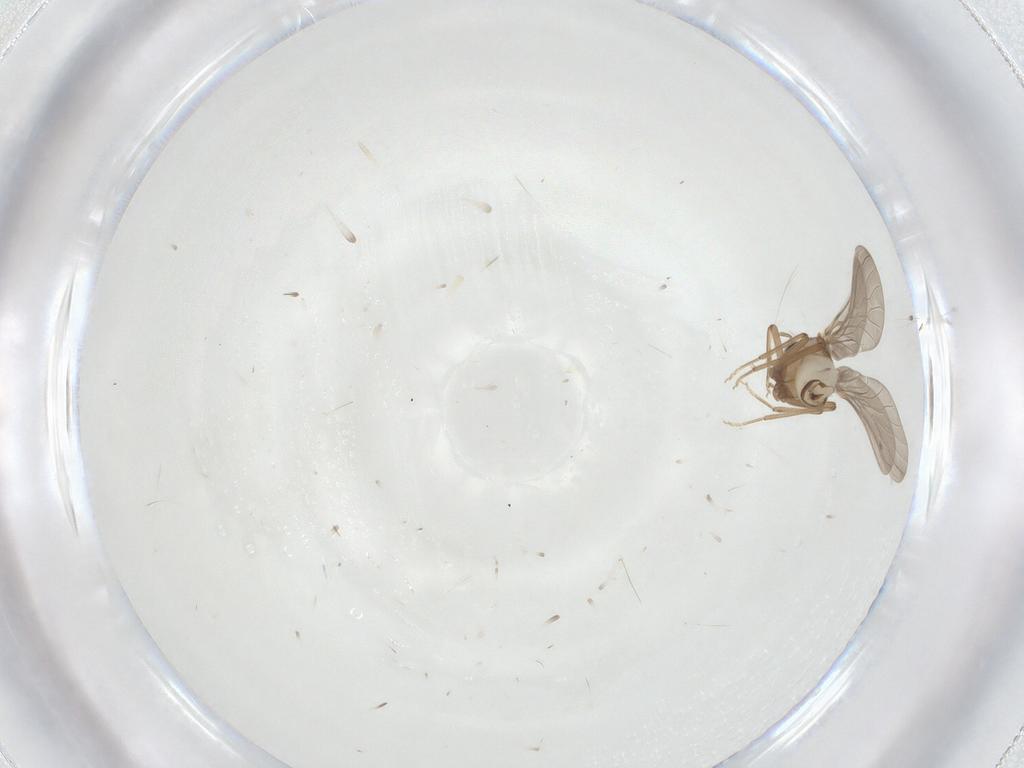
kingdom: Animalia
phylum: Arthropoda
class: Insecta
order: Neuroptera
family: Coniopterygidae
